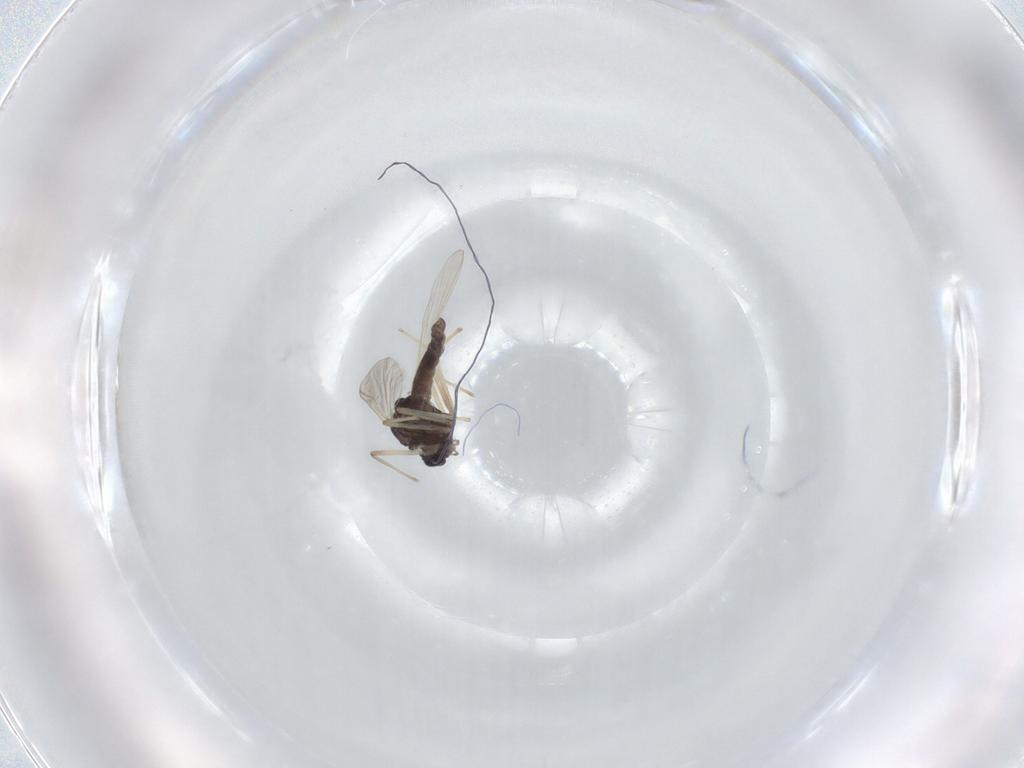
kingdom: Animalia
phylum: Arthropoda
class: Insecta
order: Diptera
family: Chironomidae
